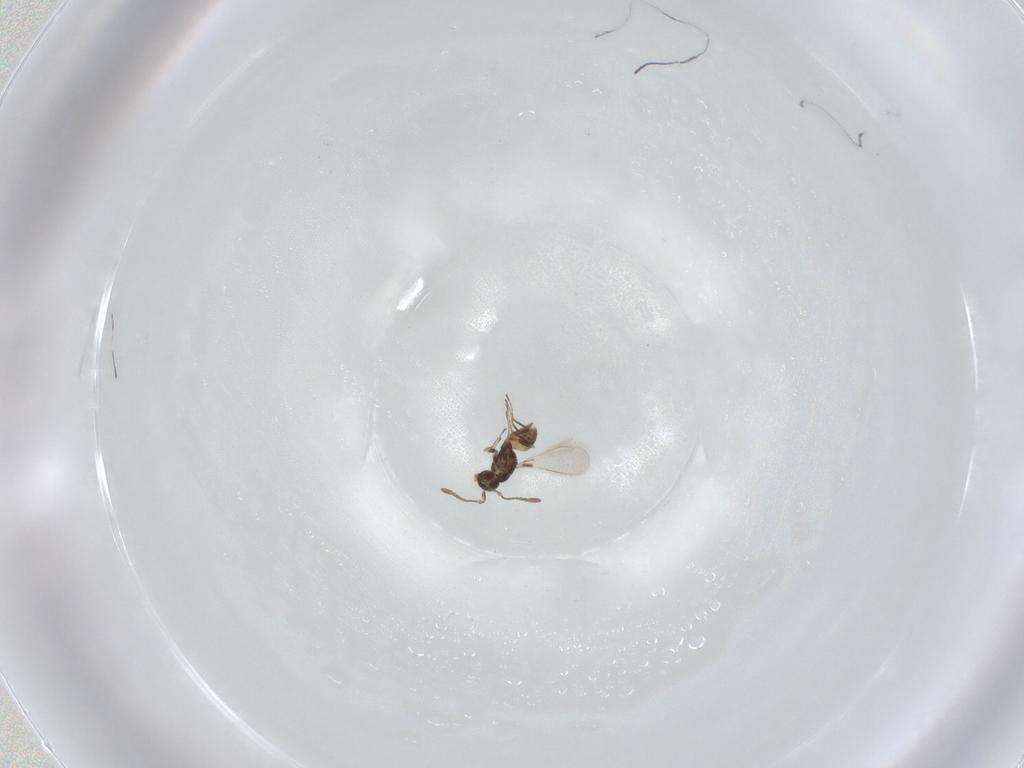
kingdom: Animalia
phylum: Arthropoda
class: Insecta
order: Hymenoptera
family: Mymaridae
